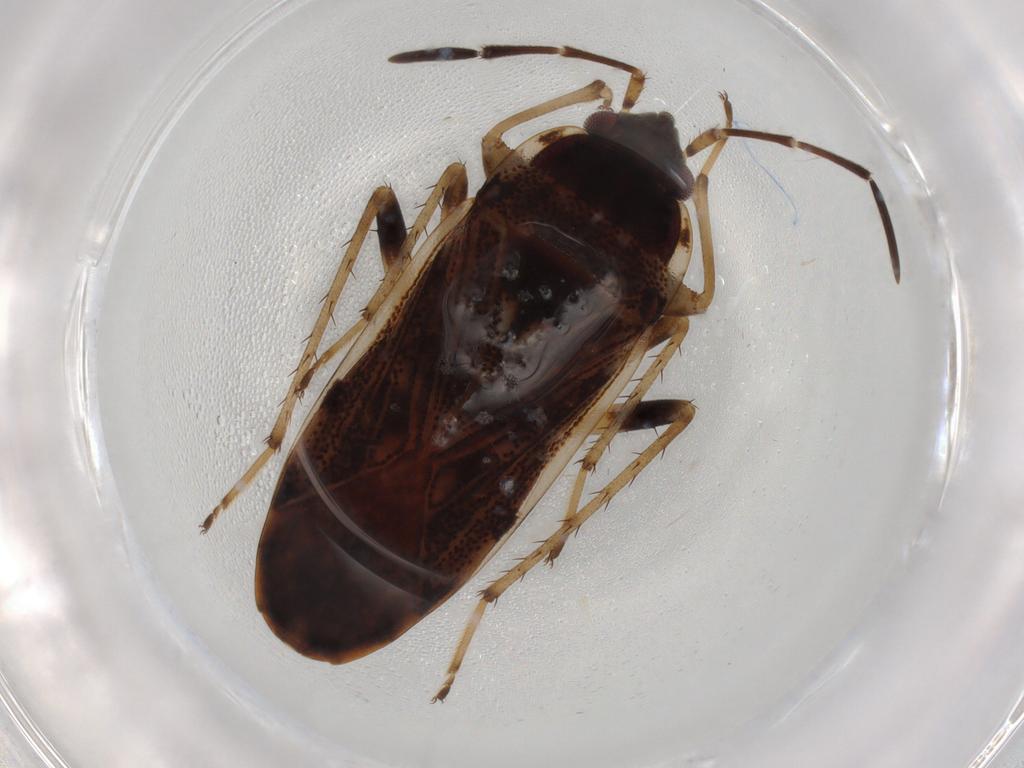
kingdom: Animalia
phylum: Arthropoda
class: Insecta
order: Hemiptera
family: Rhyparochromidae
